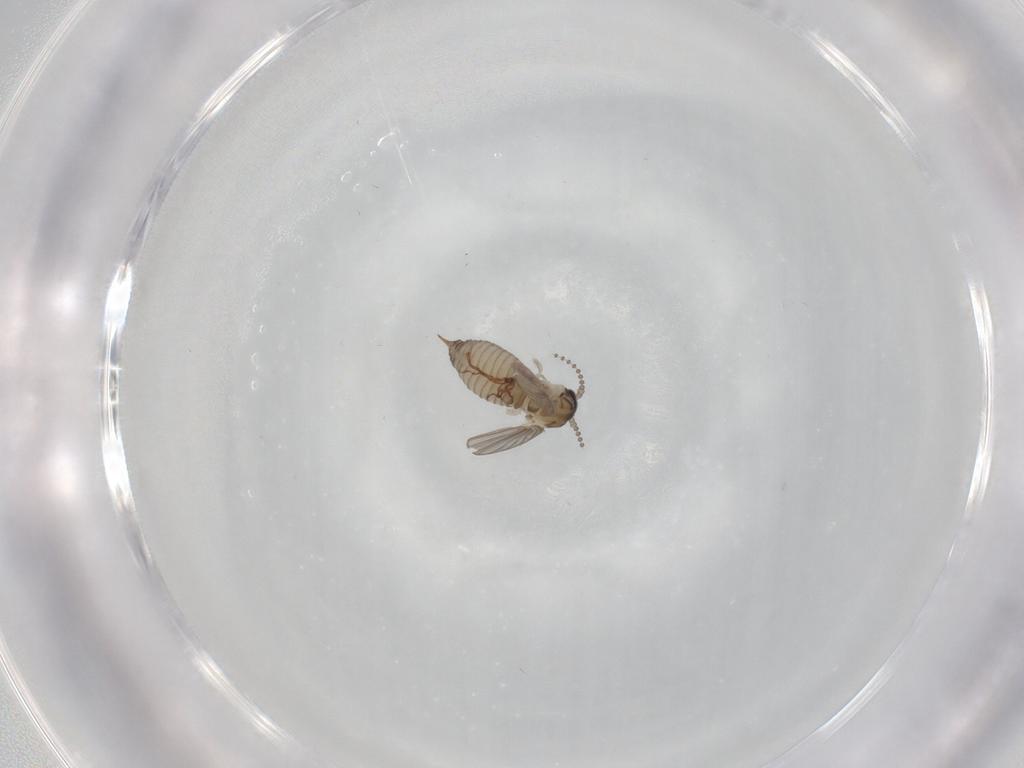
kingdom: Animalia
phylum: Arthropoda
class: Insecta
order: Diptera
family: Psychodidae
